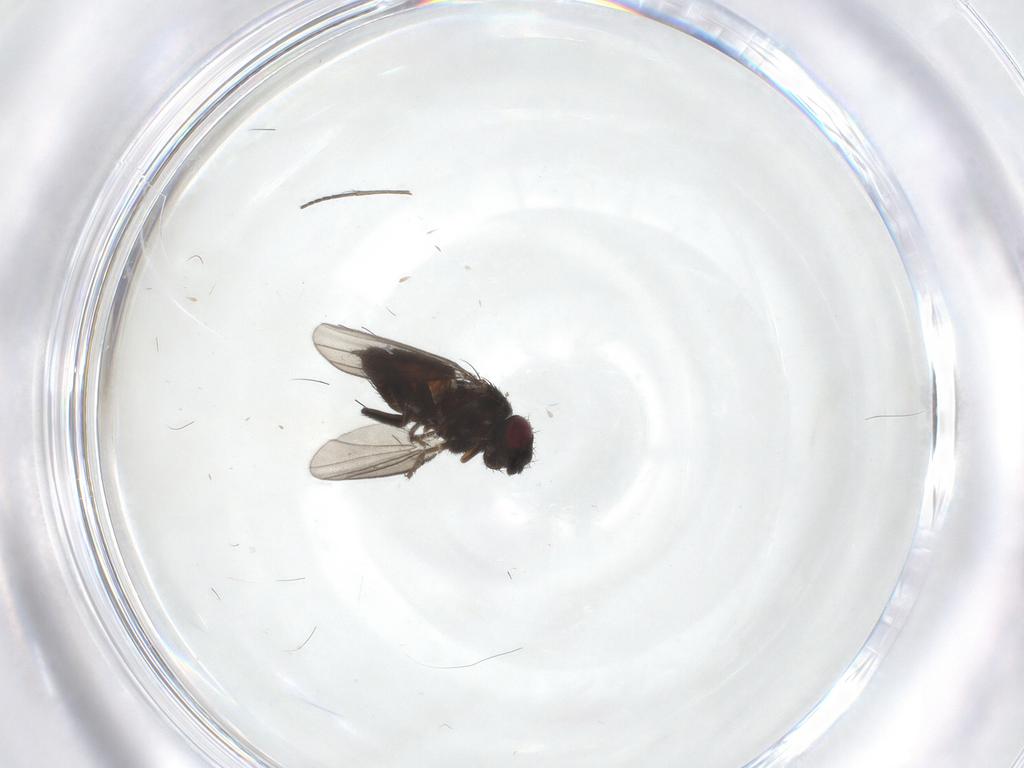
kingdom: Animalia
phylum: Arthropoda
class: Insecta
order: Diptera
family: Milichiidae
